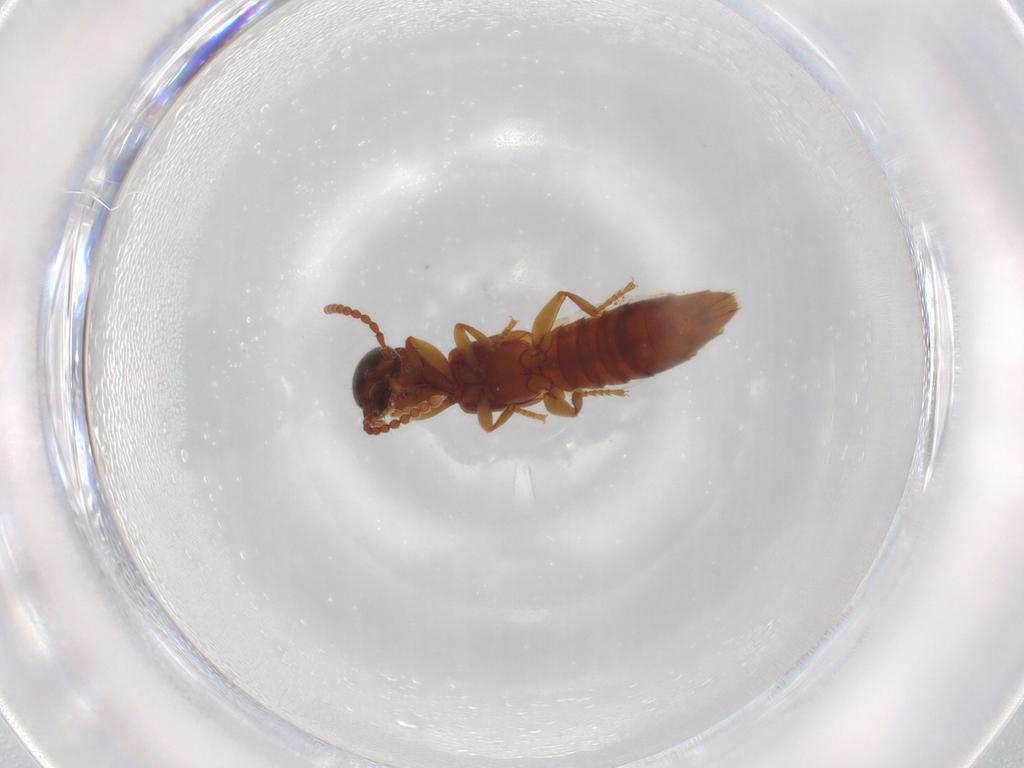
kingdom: Animalia
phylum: Arthropoda
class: Insecta
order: Coleoptera
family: Staphylinidae
